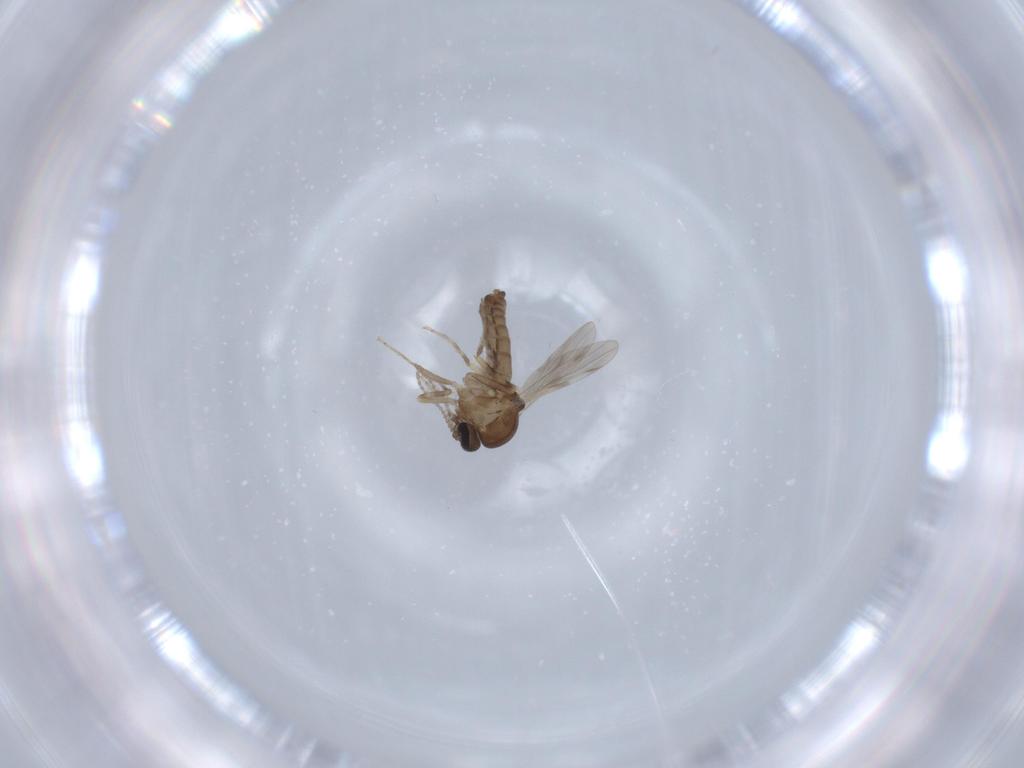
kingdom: Animalia
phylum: Arthropoda
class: Insecta
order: Diptera
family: Ceratopogonidae
